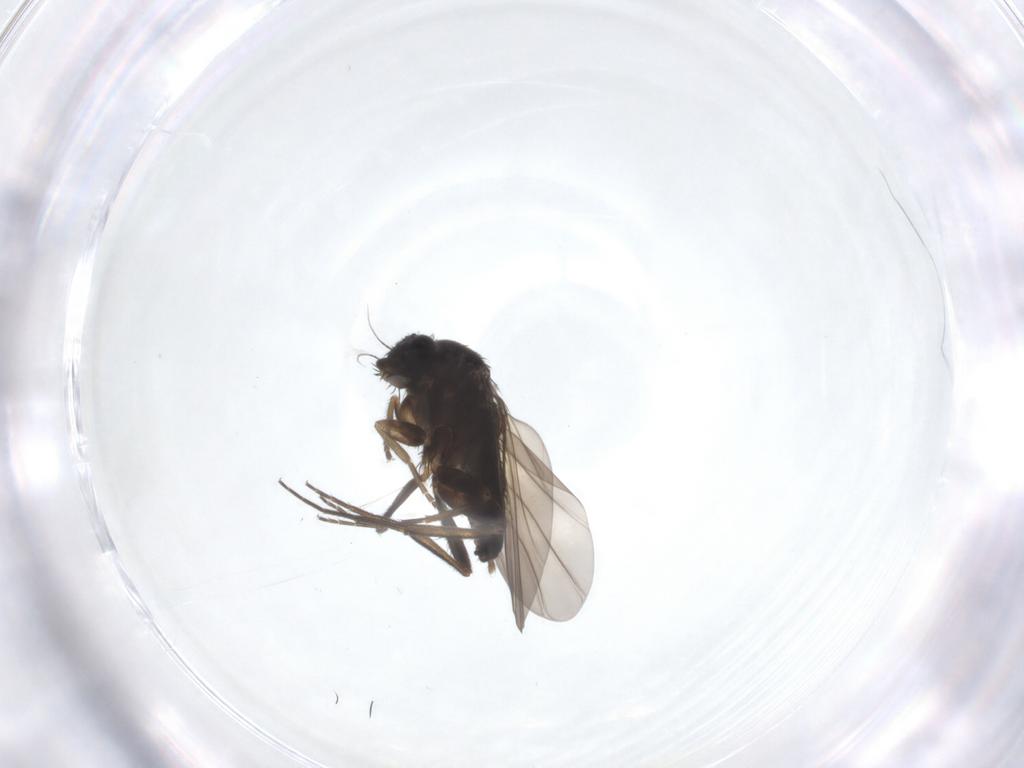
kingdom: Animalia
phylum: Arthropoda
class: Insecta
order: Diptera
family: Phoridae
